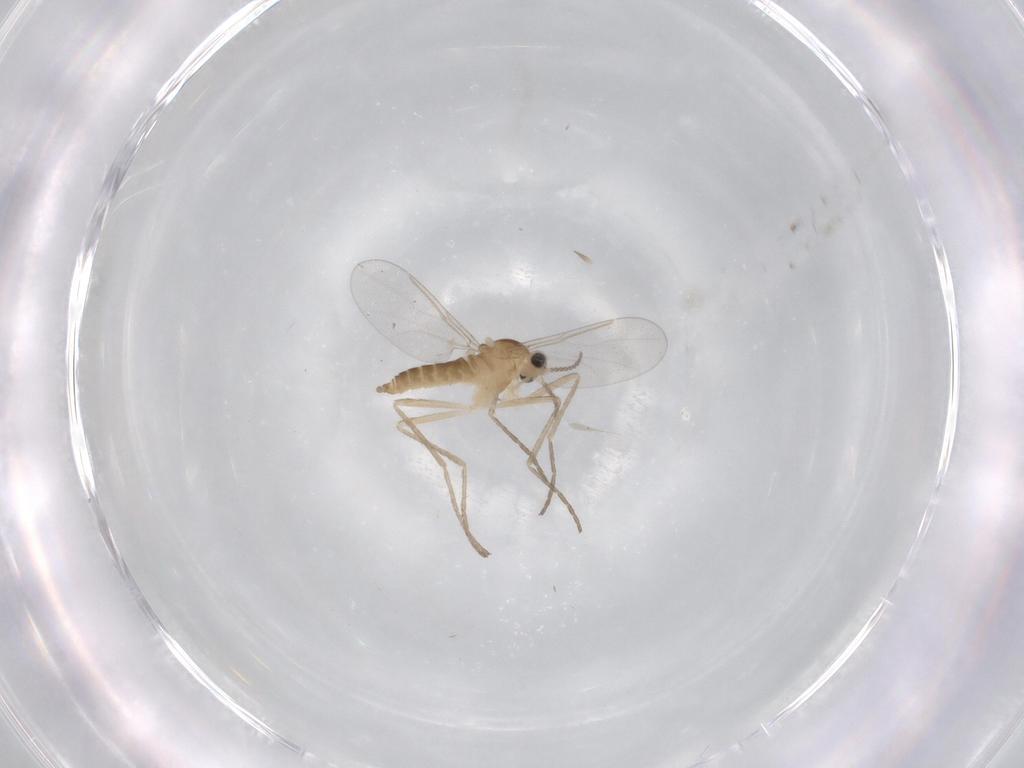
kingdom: Animalia
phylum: Arthropoda
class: Insecta
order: Diptera
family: Cecidomyiidae
